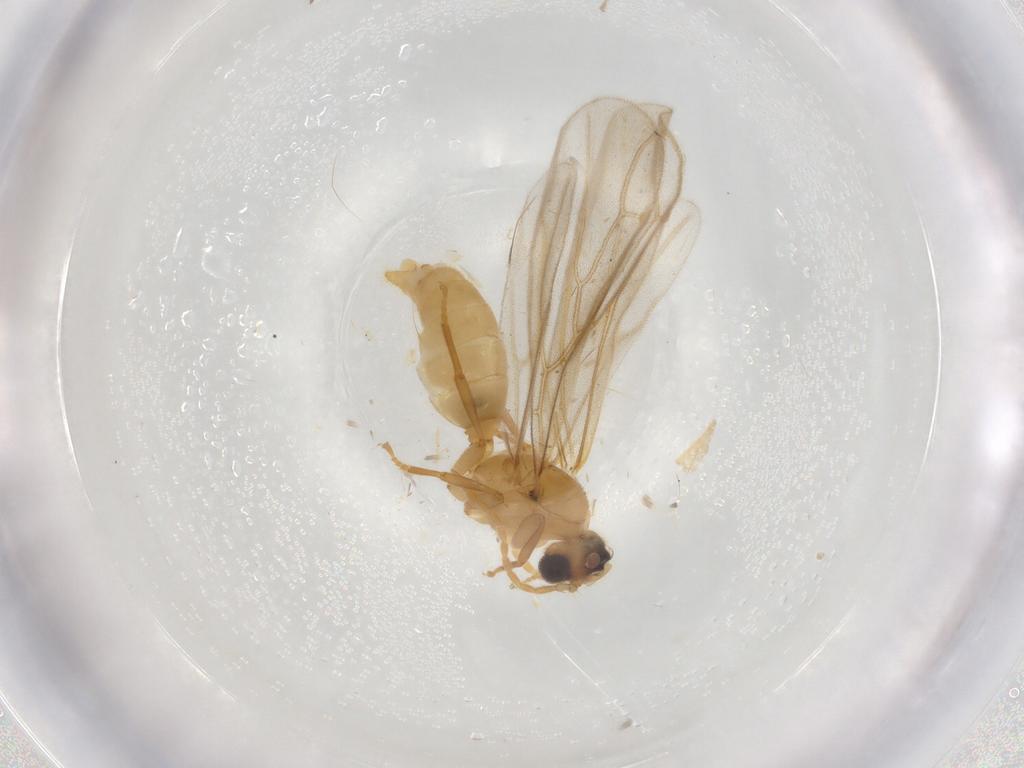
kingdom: Animalia
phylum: Arthropoda
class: Insecta
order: Hymenoptera
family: Formicidae
